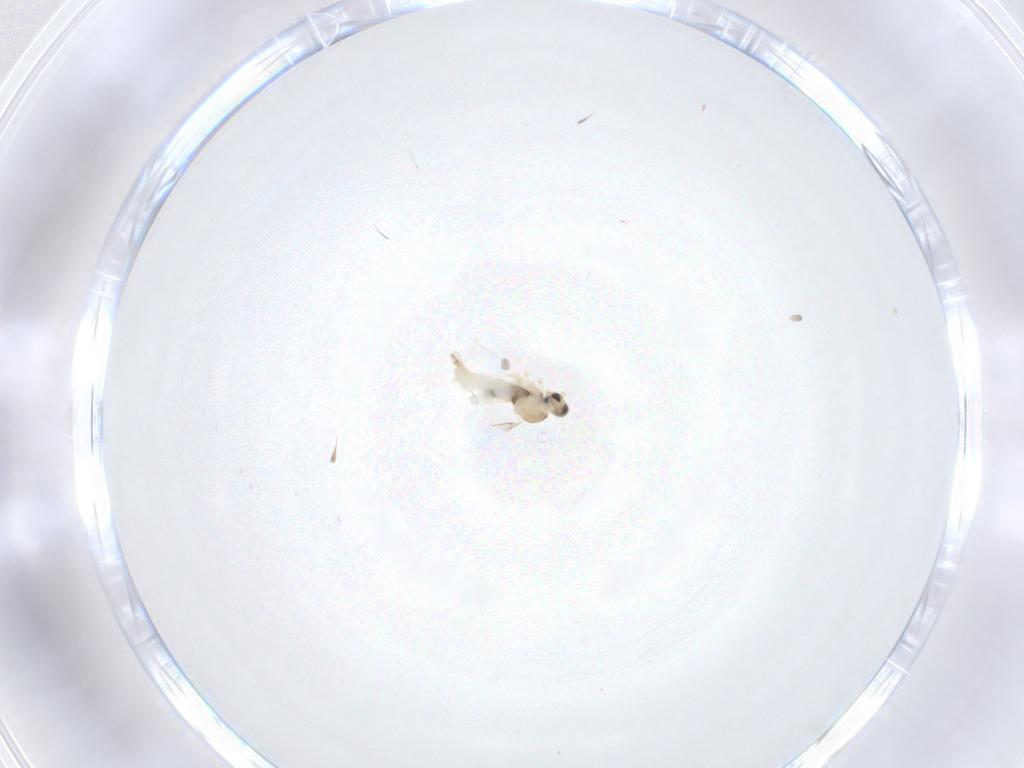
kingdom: Animalia
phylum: Arthropoda
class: Insecta
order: Diptera
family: Cecidomyiidae
